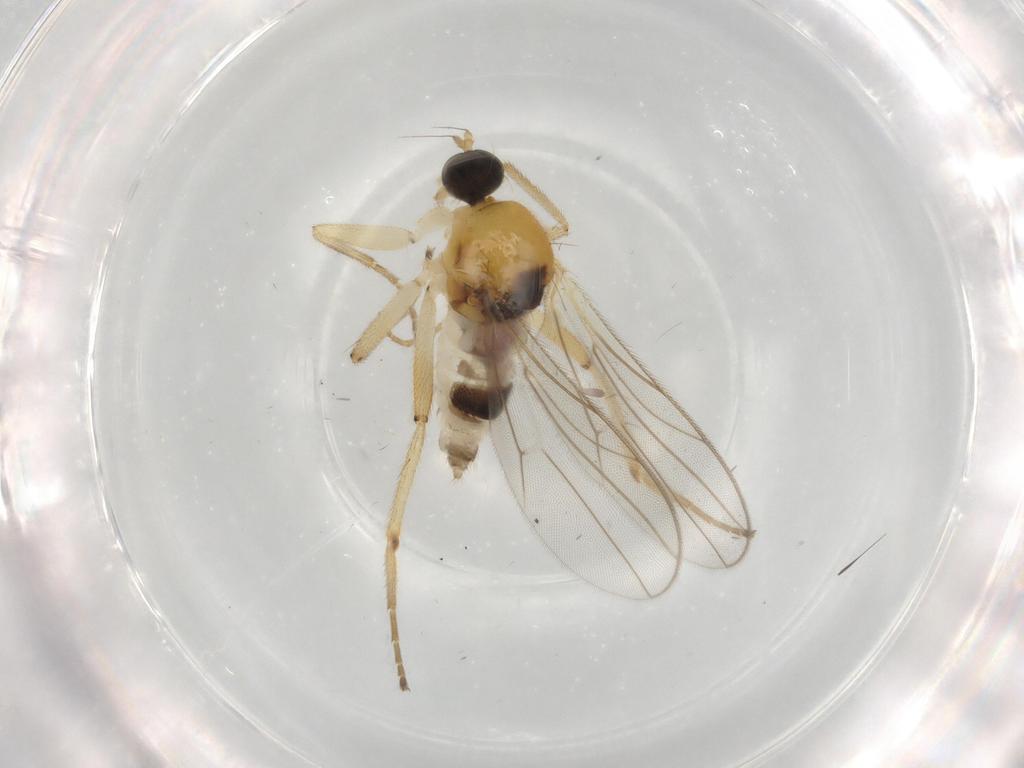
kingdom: Animalia
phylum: Arthropoda
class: Insecta
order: Diptera
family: Hybotidae
